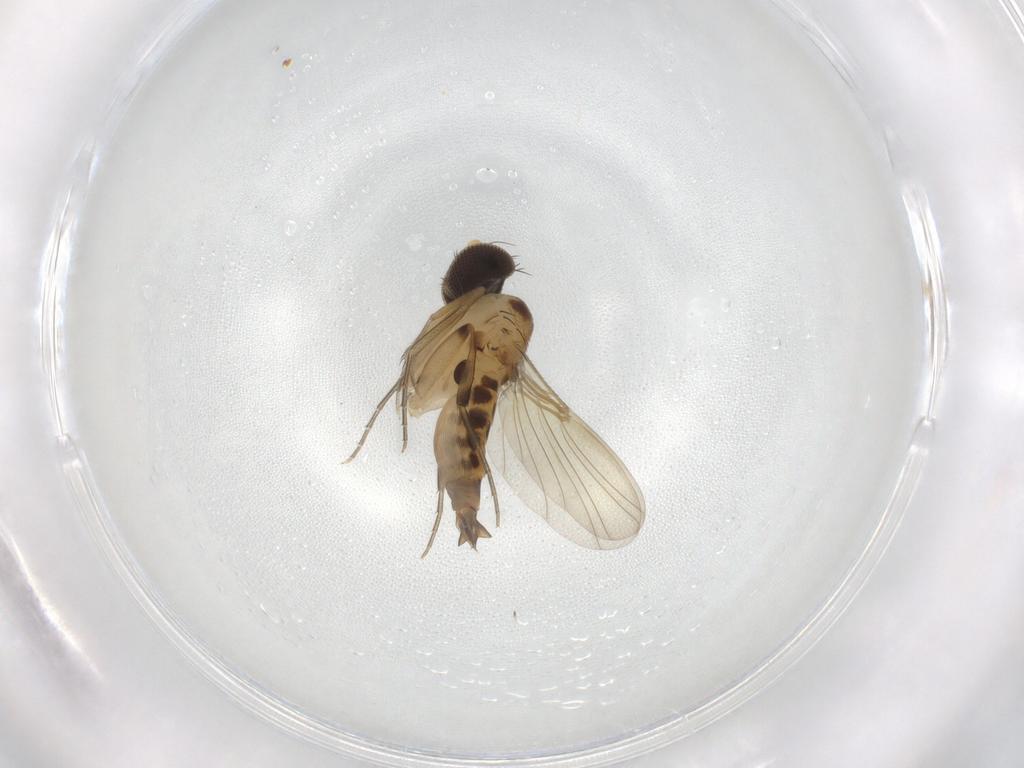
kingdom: Animalia
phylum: Arthropoda
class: Insecta
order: Diptera
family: Phoridae
